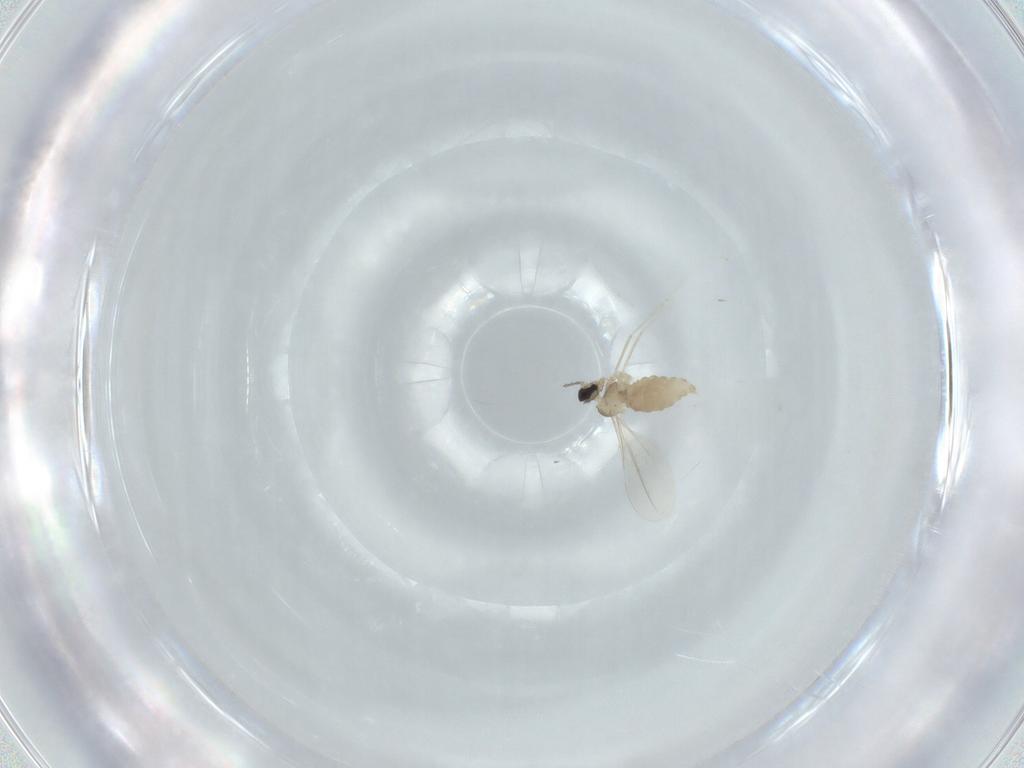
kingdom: Animalia
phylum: Arthropoda
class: Insecta
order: Diptera
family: Cecidomyiidae
